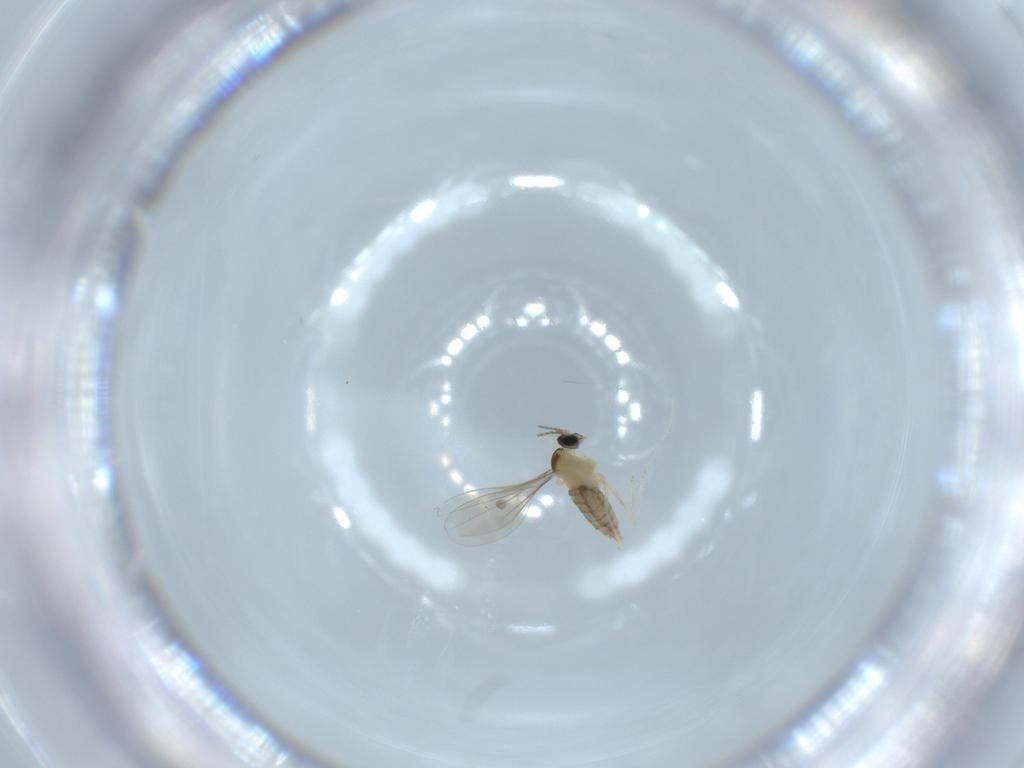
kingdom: Animalia
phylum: Arthropoda
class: Insecta
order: Diptera
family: Chironomidae
